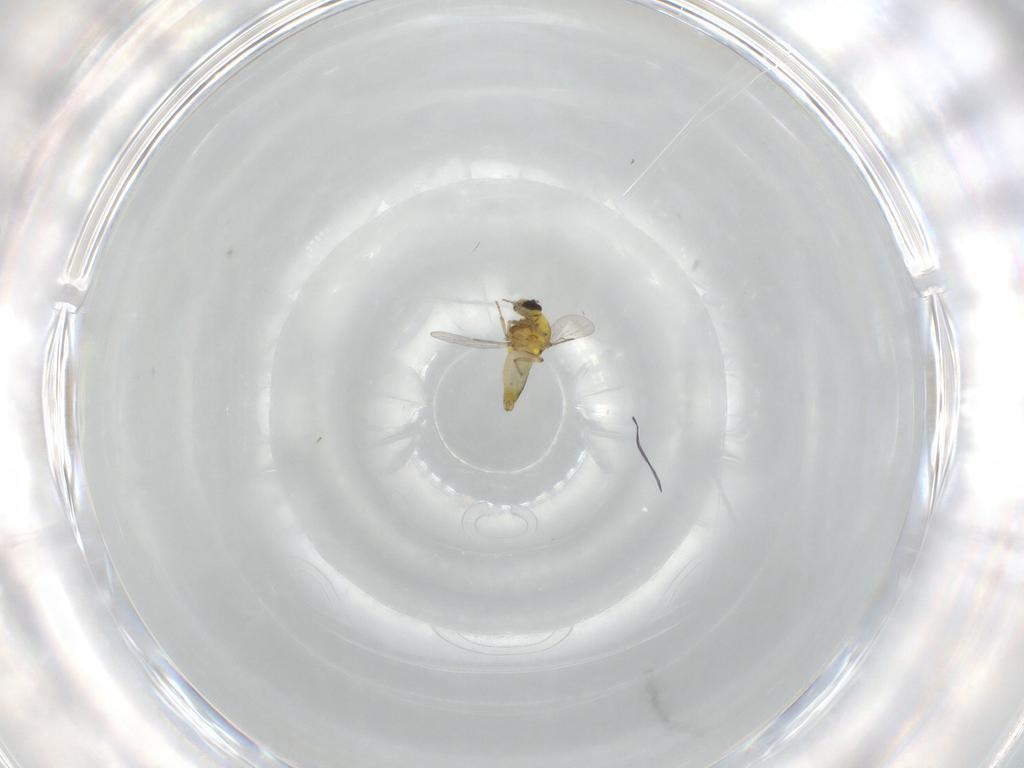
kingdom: Animalia
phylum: Arthropoda
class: Insecta
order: Diptera
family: Ceratopogonidae
